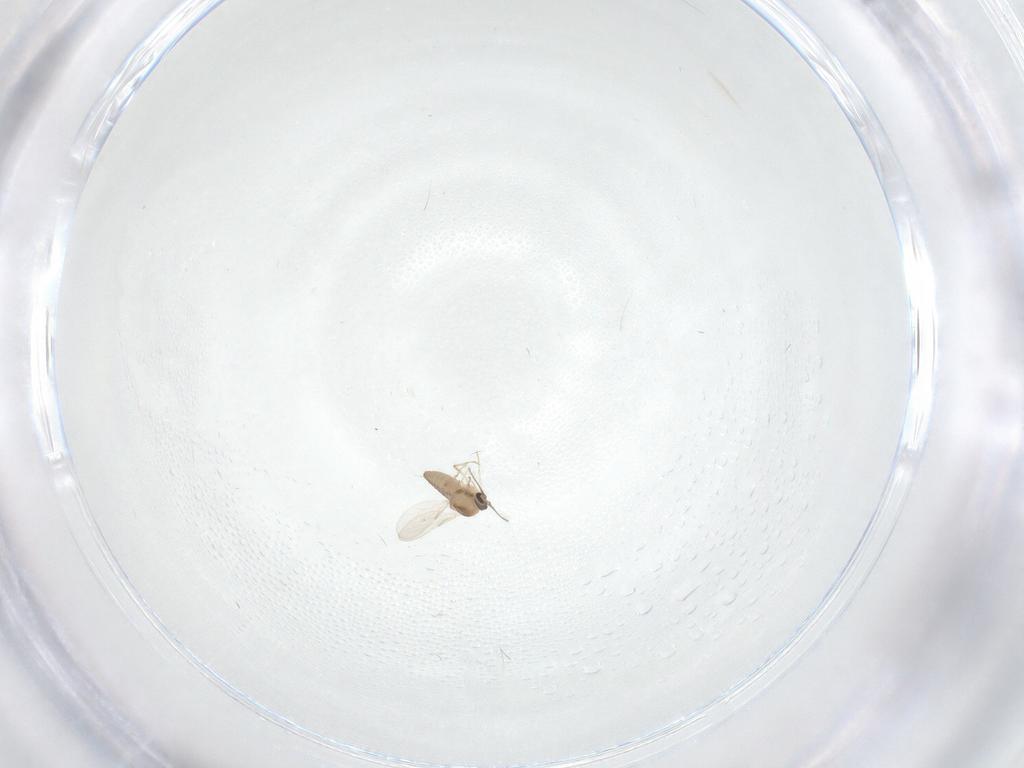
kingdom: Animalia
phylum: Arthropoda
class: Insecta
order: Diptera
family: Ceratopogonidae
